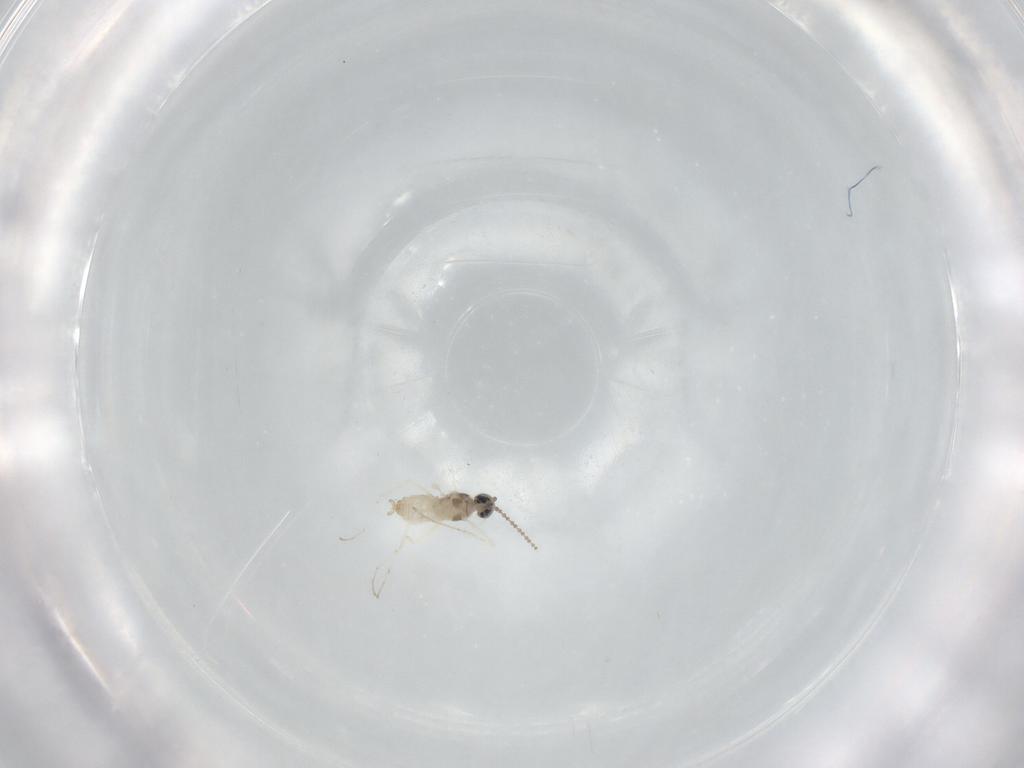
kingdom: Animalia
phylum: Arthropoda
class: Insecta
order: Diptera
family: Cecidomyiidae
